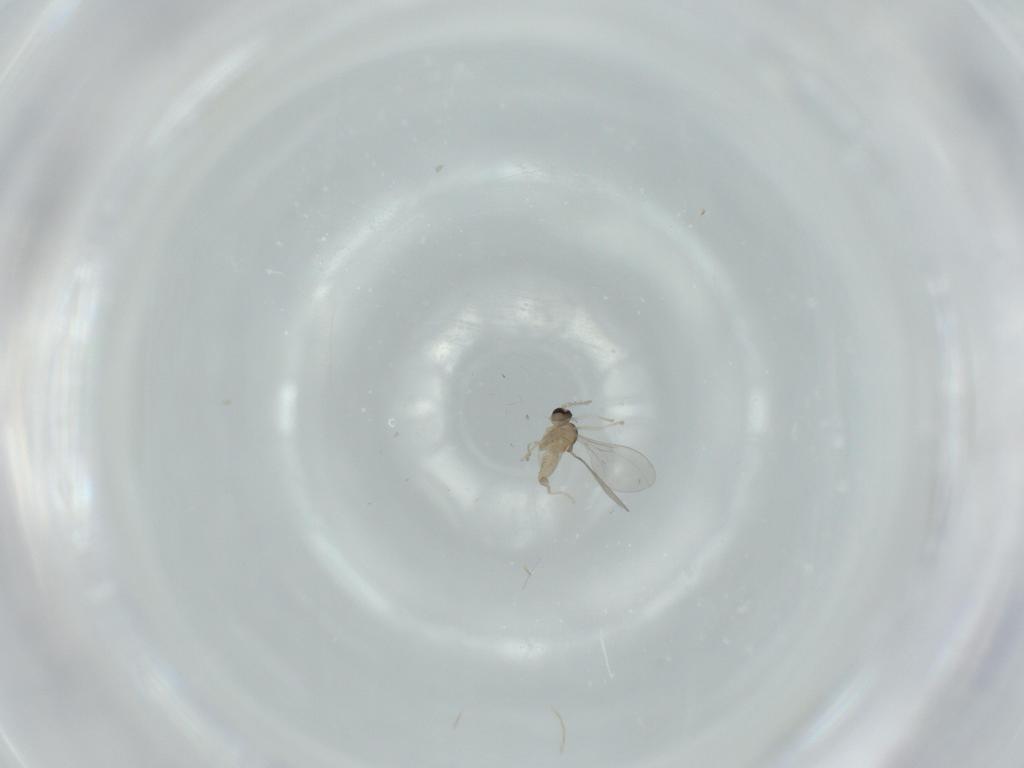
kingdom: Animalia
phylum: Arthropoda
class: Insecta
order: Diptera
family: Cecidomyiidae
